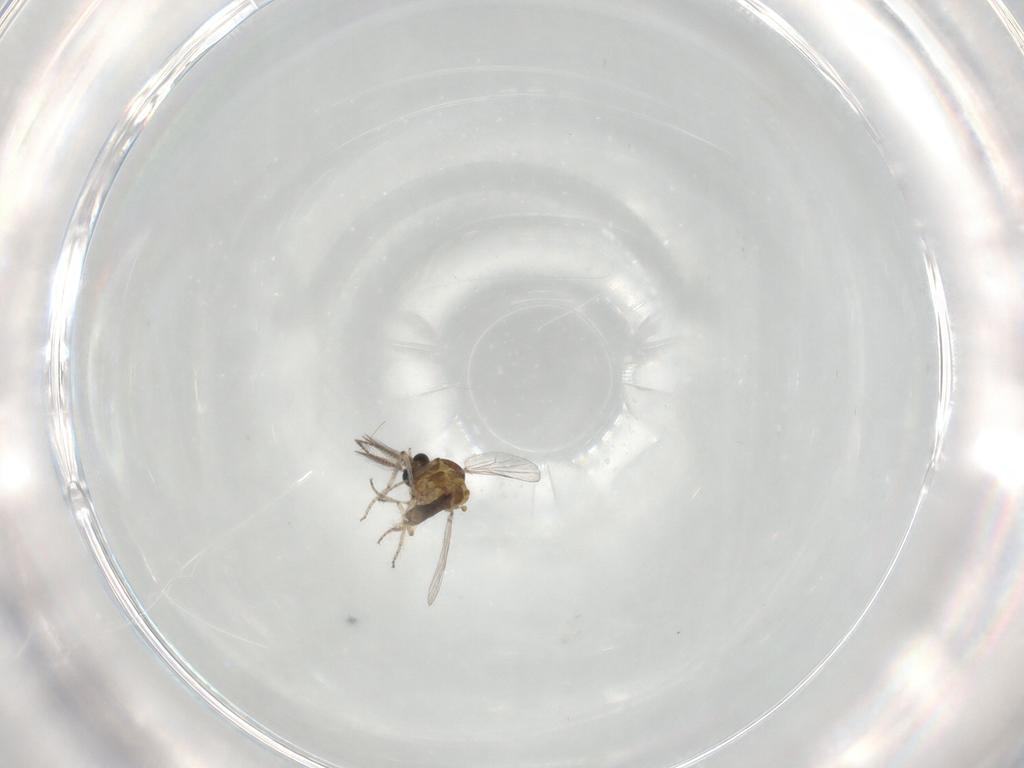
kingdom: Animalia
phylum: Arthropoda
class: Insecta
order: Diptera
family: Ceratopogonidae
